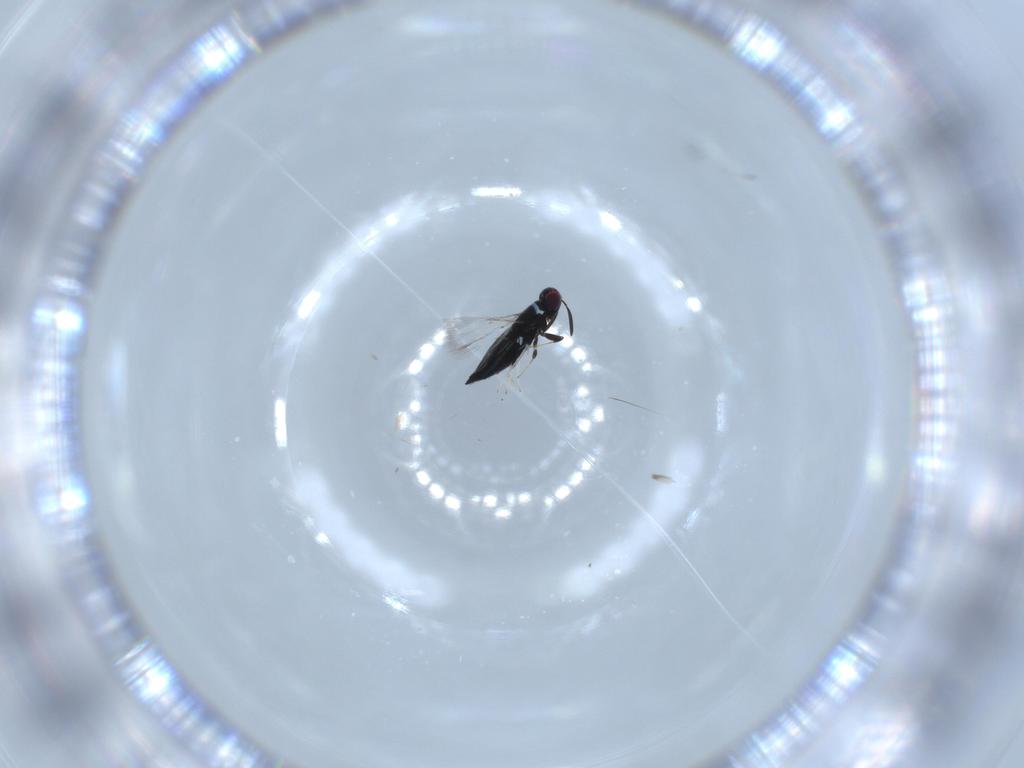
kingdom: Animalia
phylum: Arthropoda
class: Insecta
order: Hymenoptera
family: Signiphoridae
